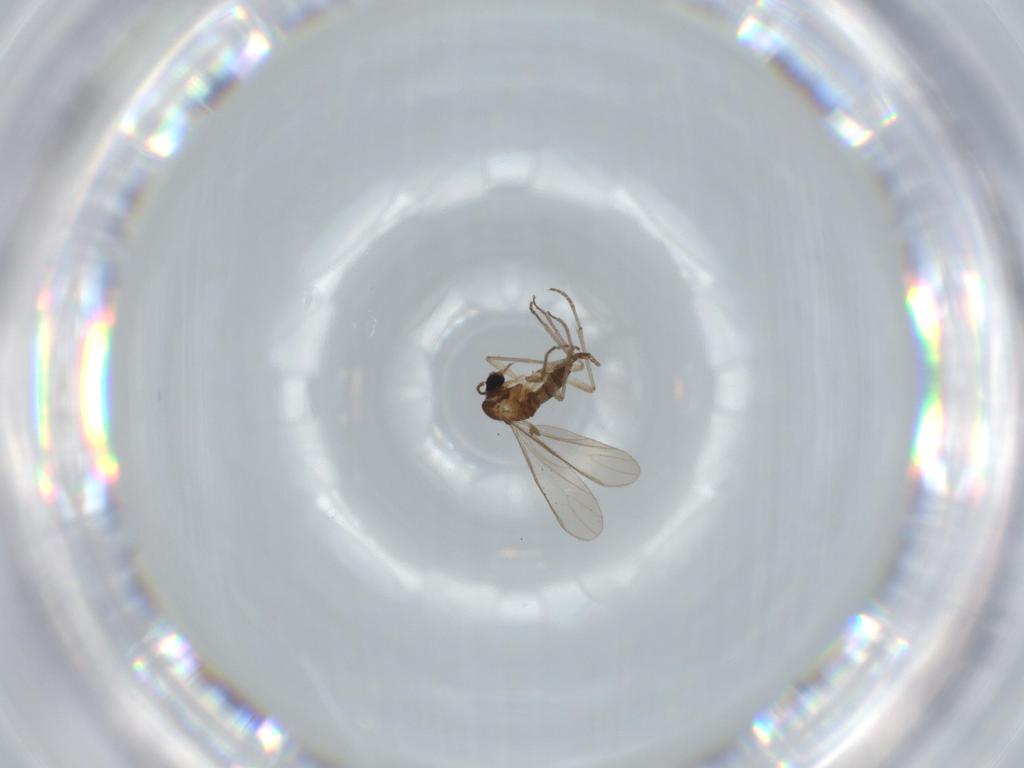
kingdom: Animalia
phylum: Arthropoda
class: Insecta
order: Diptera
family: Sciaridae
